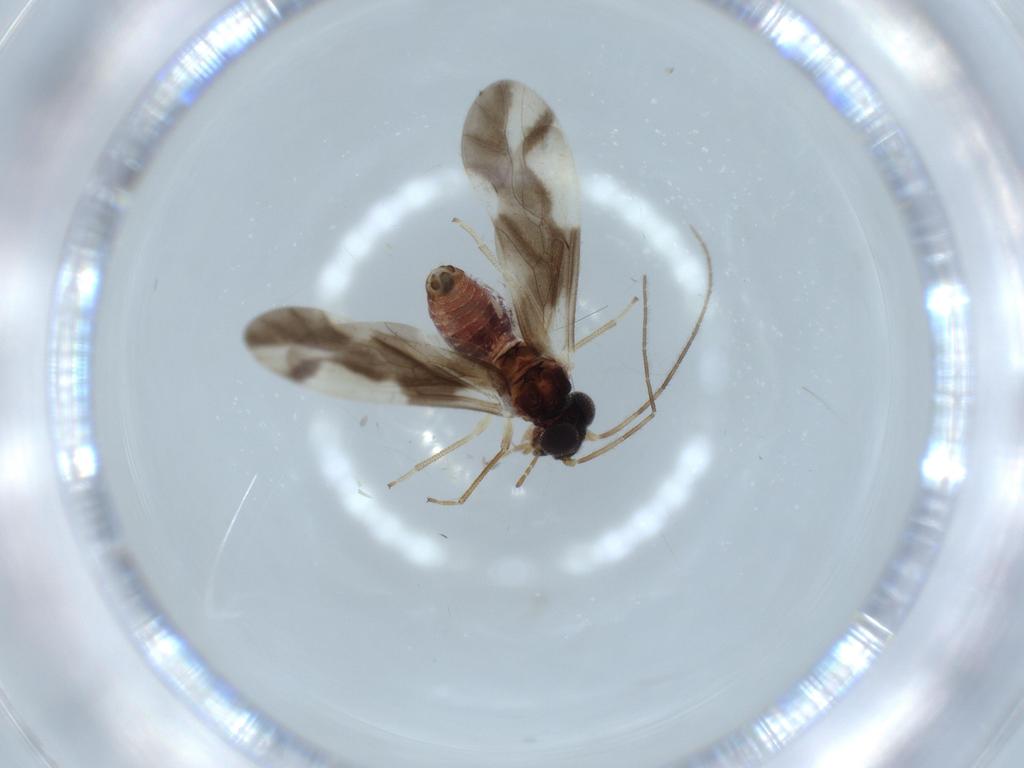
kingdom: Animalia
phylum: Arthropoda
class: Insecta
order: Psocodea
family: Caeciliusidae
